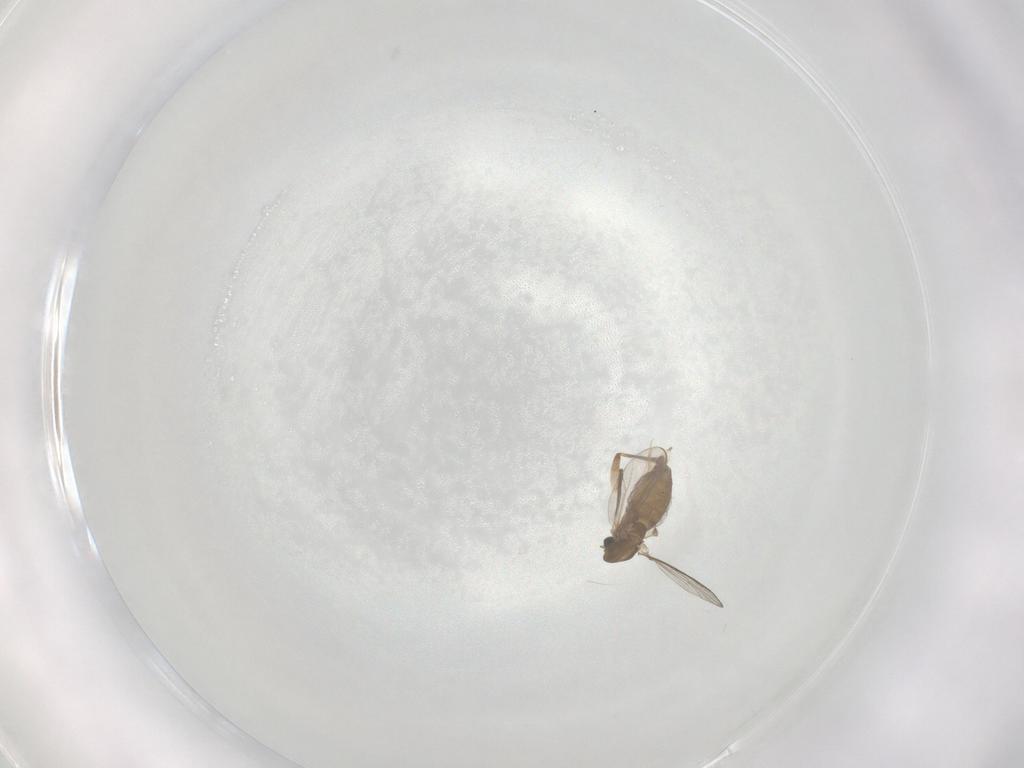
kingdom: Animalia
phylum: Arthropoda
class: Insecta
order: Diptera
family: Chironomidae
